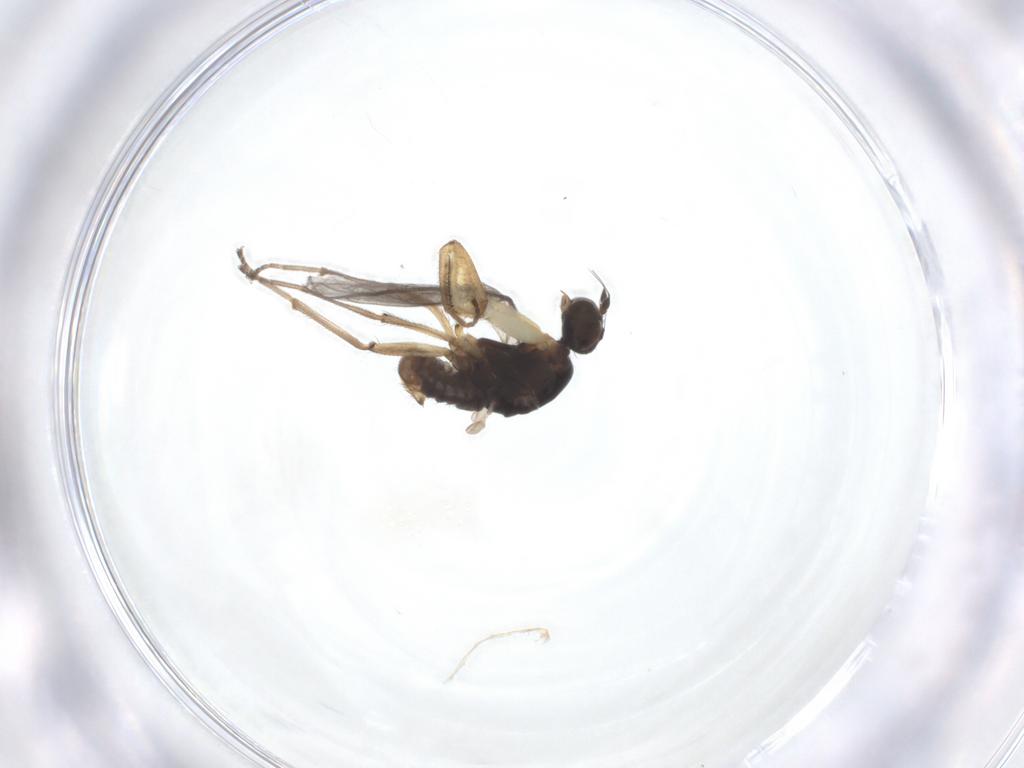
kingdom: Animalia
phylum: Arthropoda
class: Insecta
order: Diptera
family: Empididae
